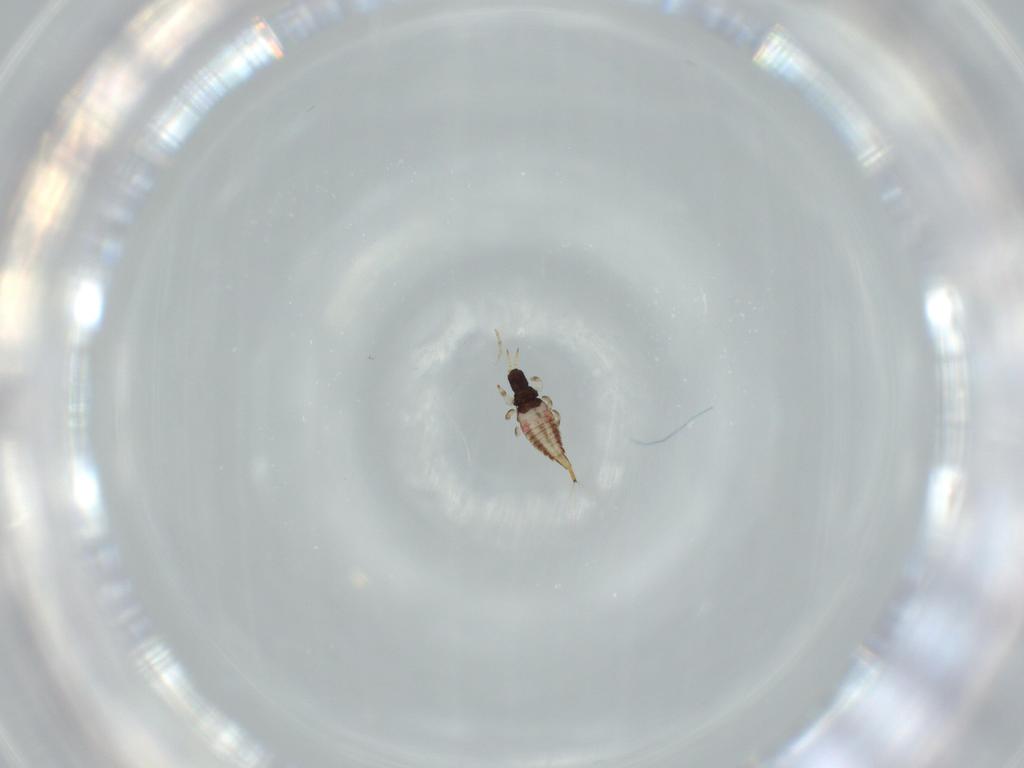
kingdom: Animalia
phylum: Arthropoda
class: Insecta
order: Thysanoptera
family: Phlaeothripidae
